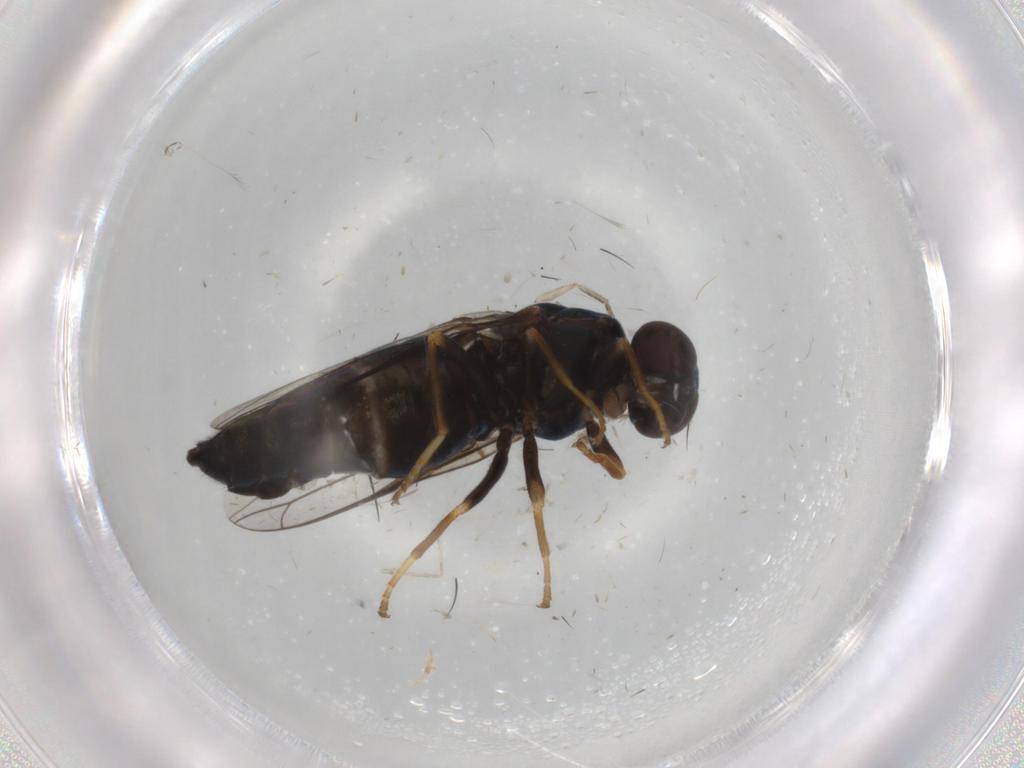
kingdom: Animalia
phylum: Arthropoda
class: Insecta
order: Diptera
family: Scenopinidae
